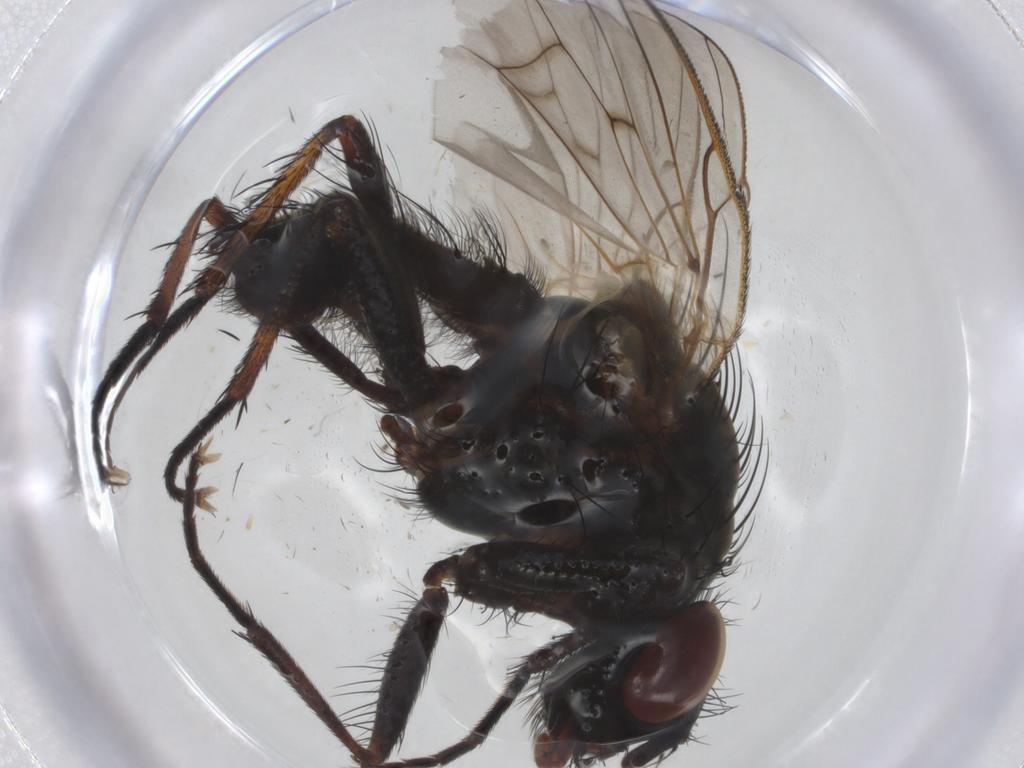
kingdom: Animalia
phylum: Arthropoda
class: Insecta
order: Diptera
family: Anthomyiidae
